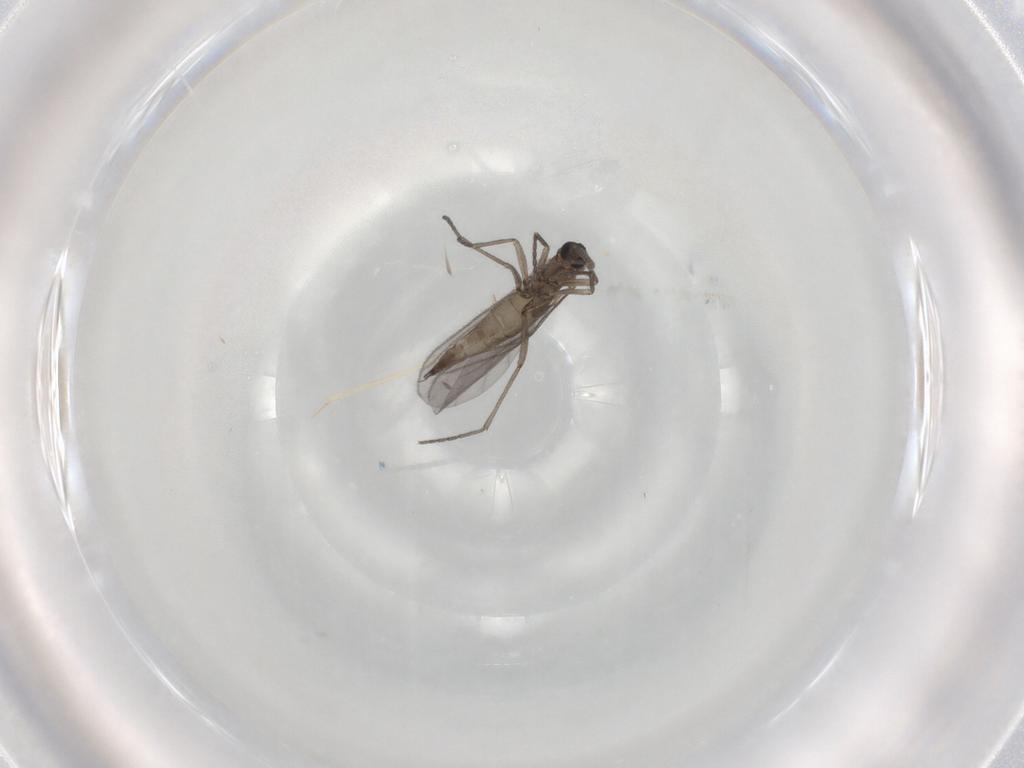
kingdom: Animalia
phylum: Arthropoda
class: Insecta
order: Diptera
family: Sciaridae
